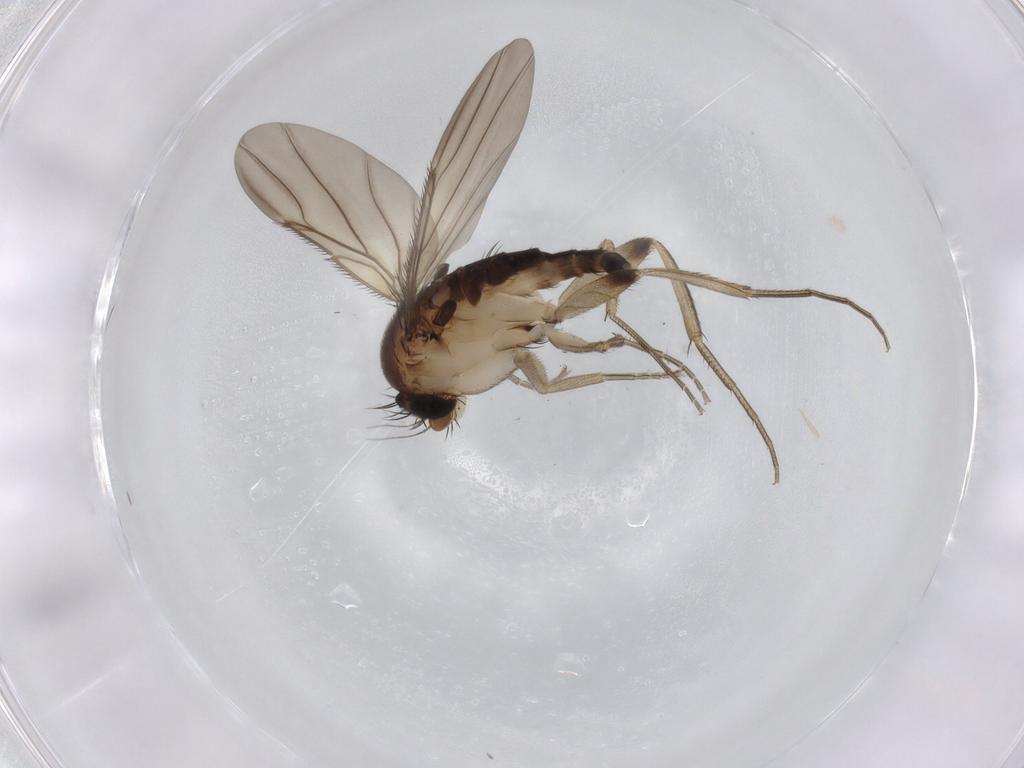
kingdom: Animalia
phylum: Arthropoda
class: Insecta
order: Diptera
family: Phoridae
